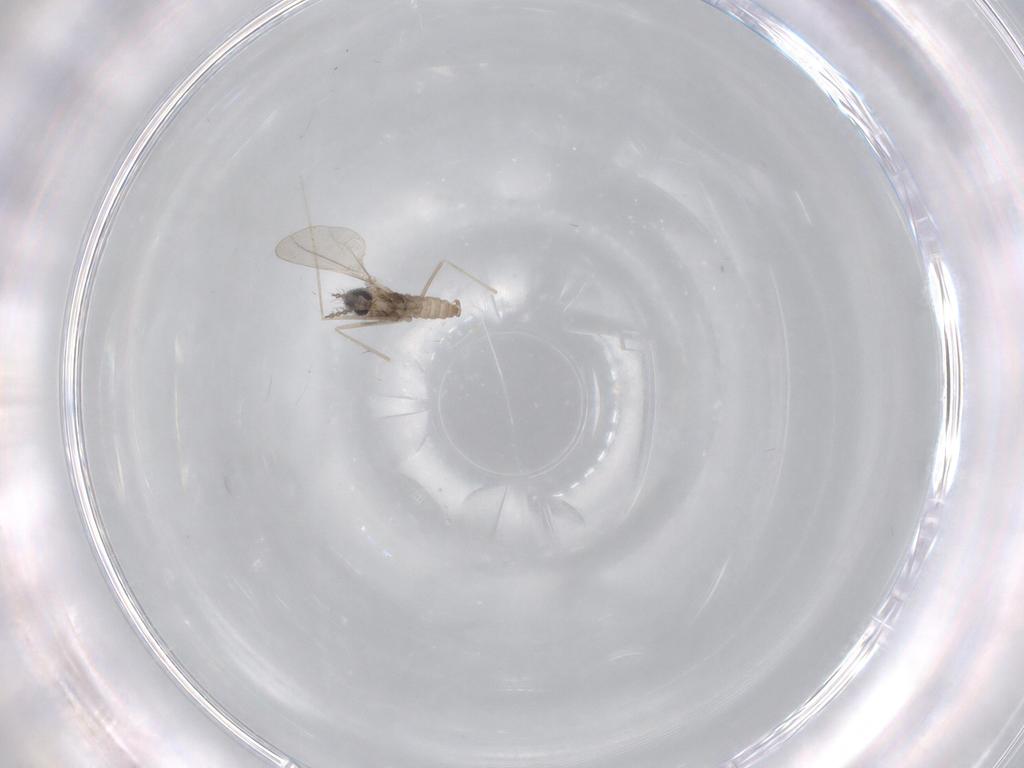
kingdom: Animalia
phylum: Arthropoda
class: Insecta
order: Diptera
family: Cecidomyiidae
